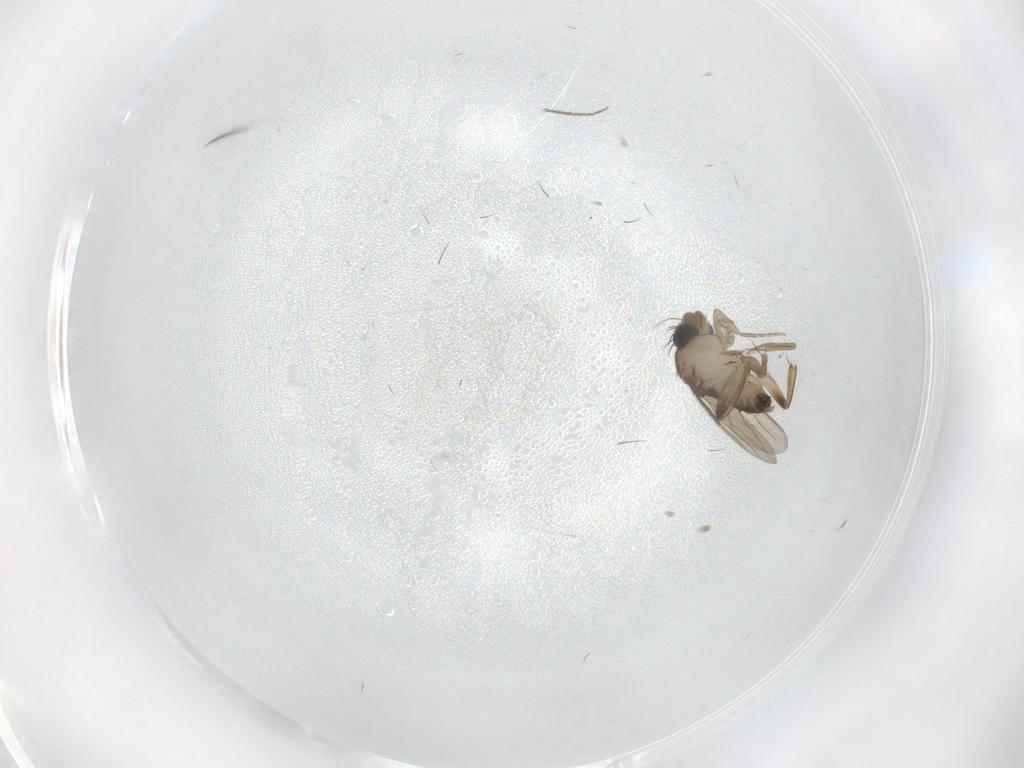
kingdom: Animalia
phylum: Arthropoda
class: Insecta
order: Diptera
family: Phoridae
